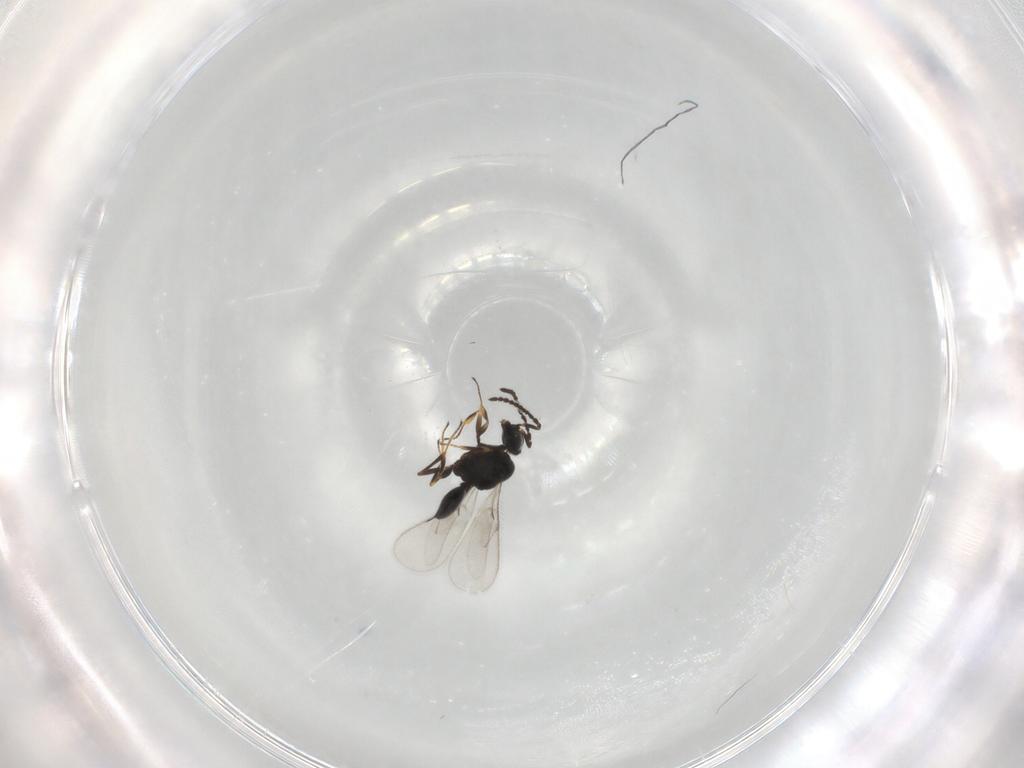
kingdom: Animalia
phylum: Arthropoda
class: Insecta
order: Hymenoptera
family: Scelionidae
